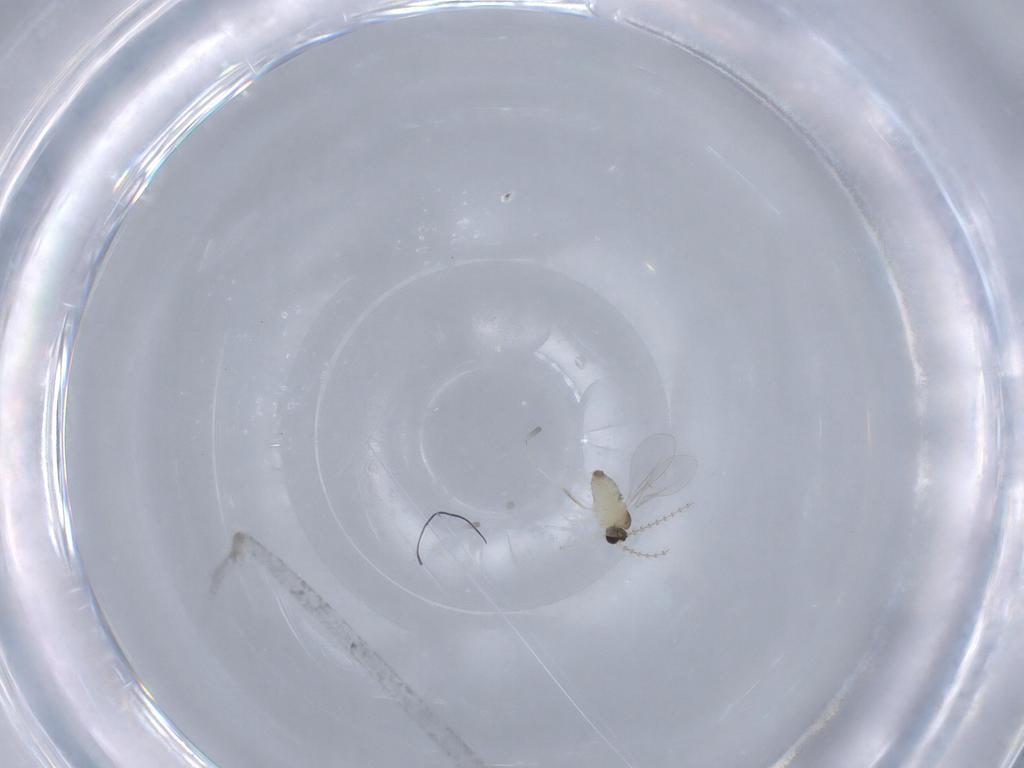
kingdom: Animalia
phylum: Arthropoda
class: Insecta
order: Diptera
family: Cecidomyiidae
